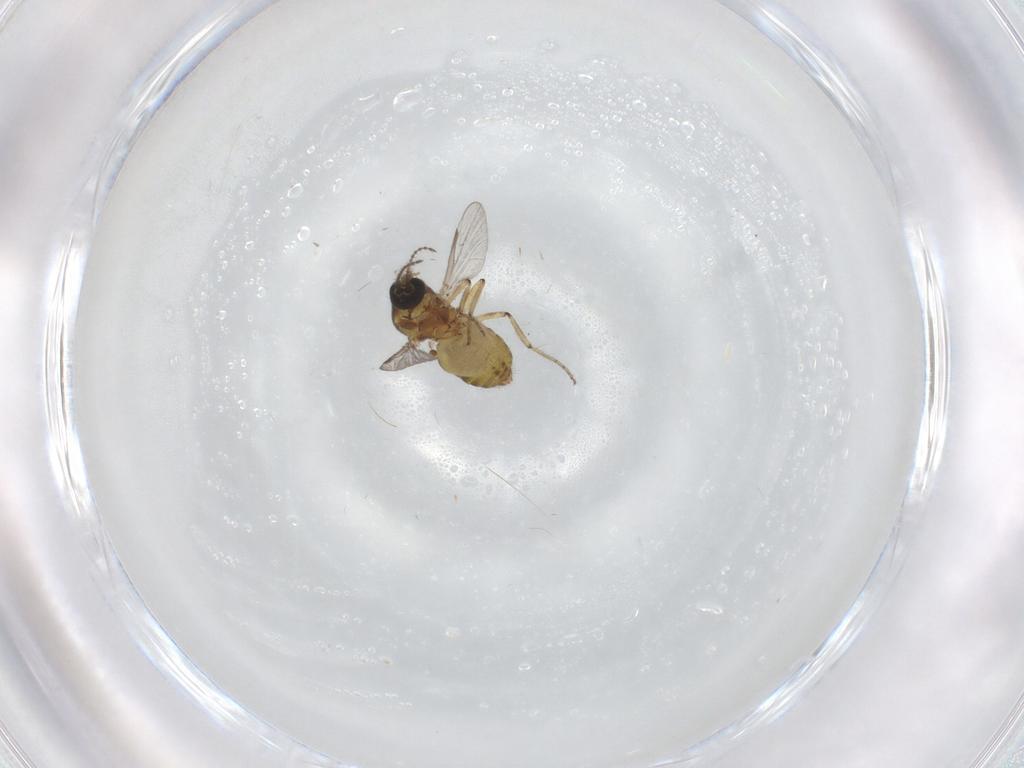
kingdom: Animalia
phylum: Arthropoda
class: Insecta
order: Diptera
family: Ceratopogonidae
